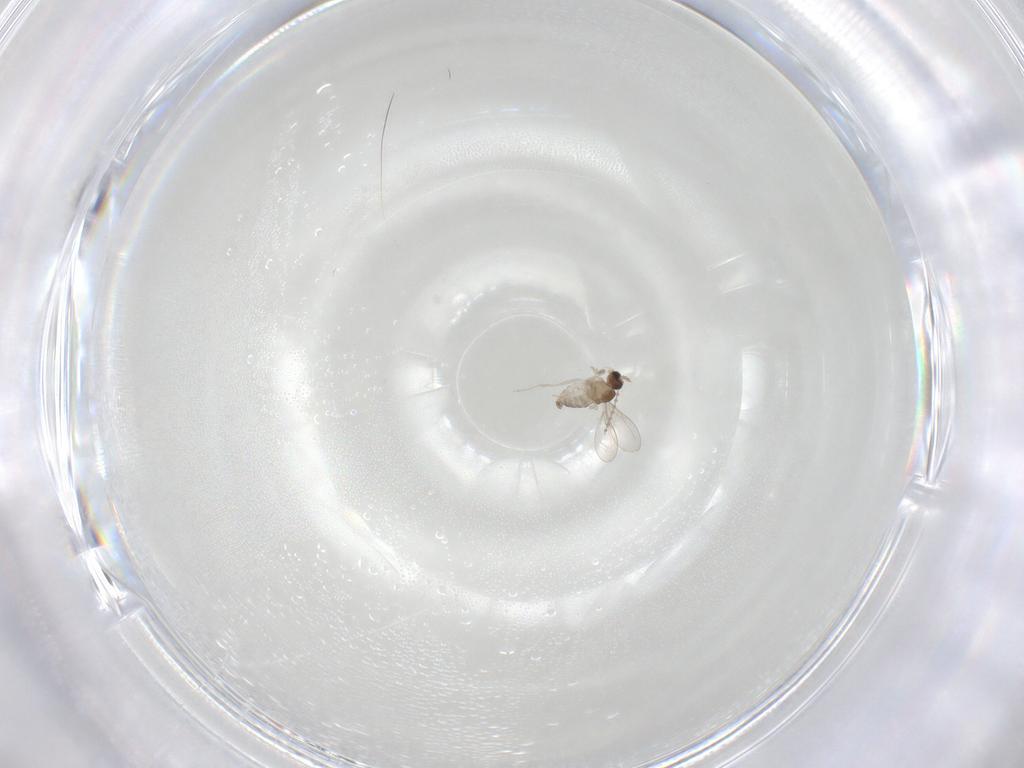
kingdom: Animalia
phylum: Arthropoda
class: Insecta
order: Diptera
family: Cecidomyiidae
